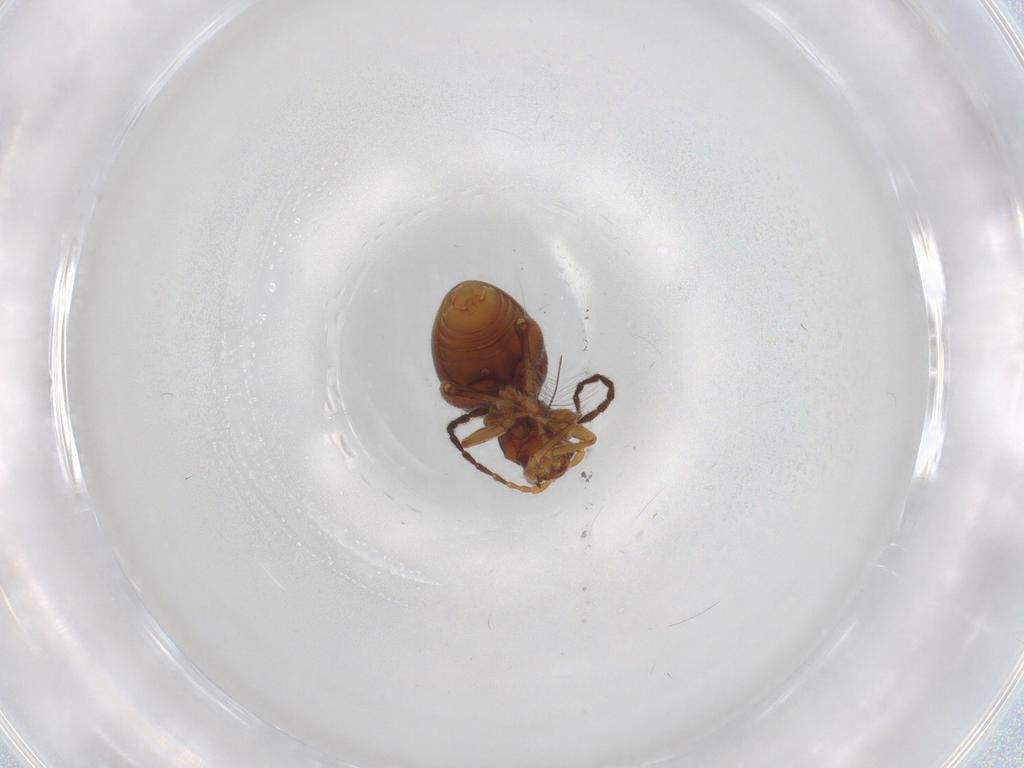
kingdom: Animalia
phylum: Arthropoda
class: Insecta
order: Coleoptera
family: Chrysomelidae
